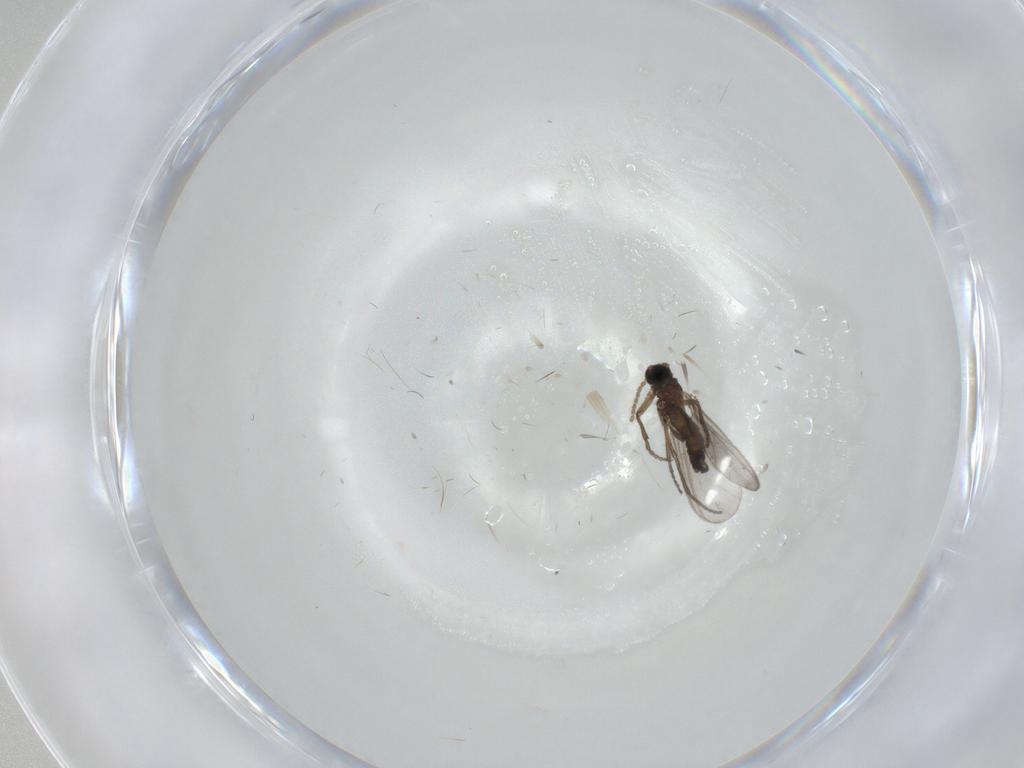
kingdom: Animalia
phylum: Arthropoda
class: Insecta
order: Diptera
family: Sciaridae
